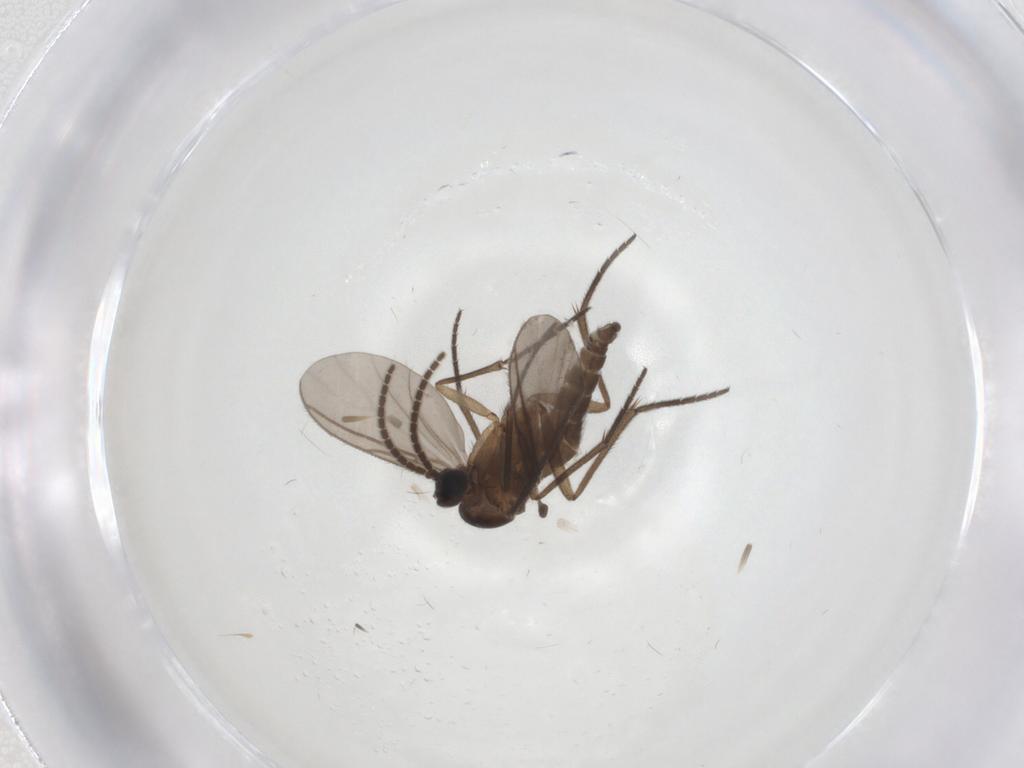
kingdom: Animalia
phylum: Arthropoda
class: Insecta
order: Diptera
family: Sciaridae
